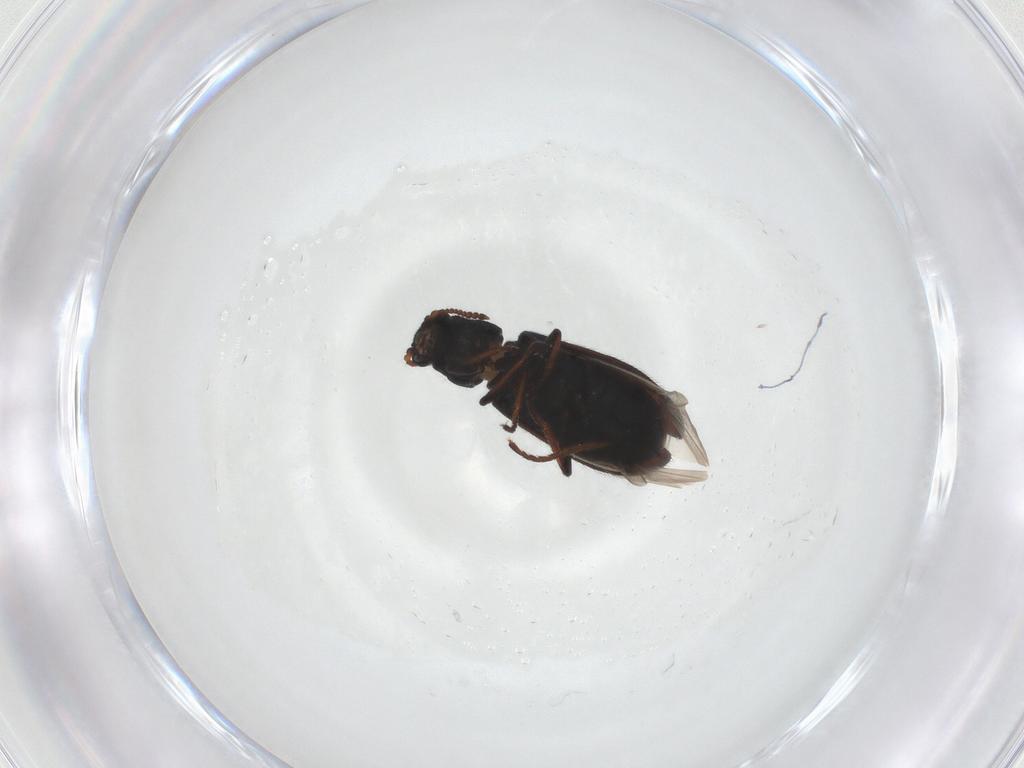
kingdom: Animalia
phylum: Arthropoda
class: Insecta
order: Coleoptera
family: Melyridae
